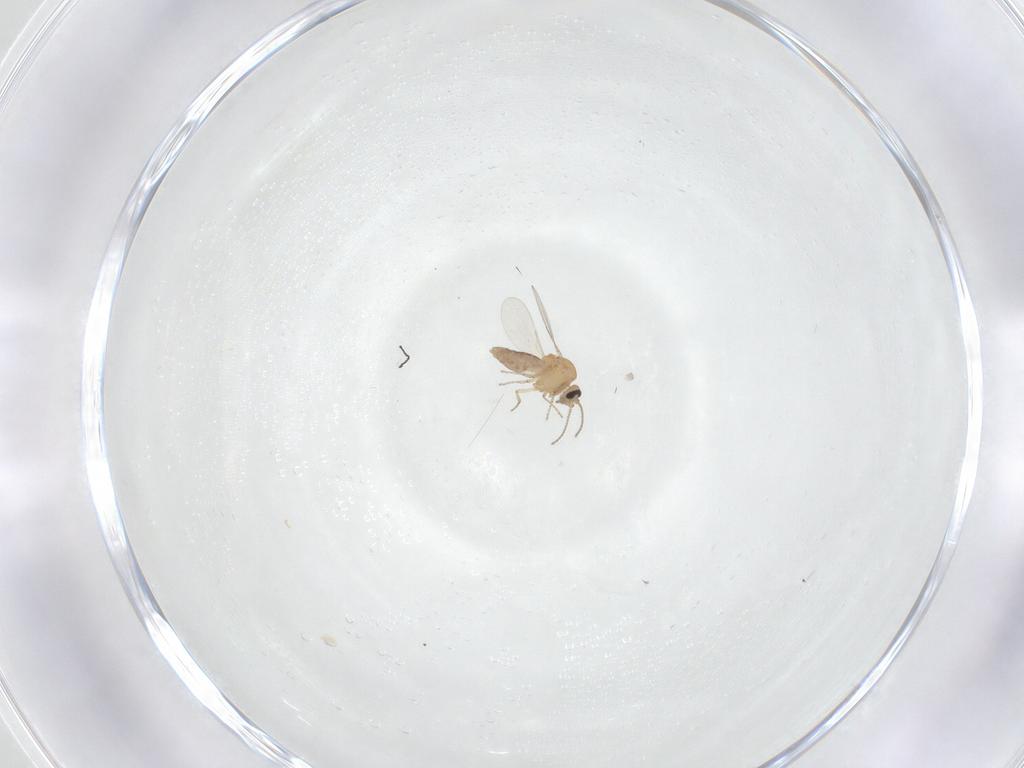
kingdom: Animalia
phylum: Arthropoda
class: Insecta
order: Diptera
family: Ceratopogonidae
